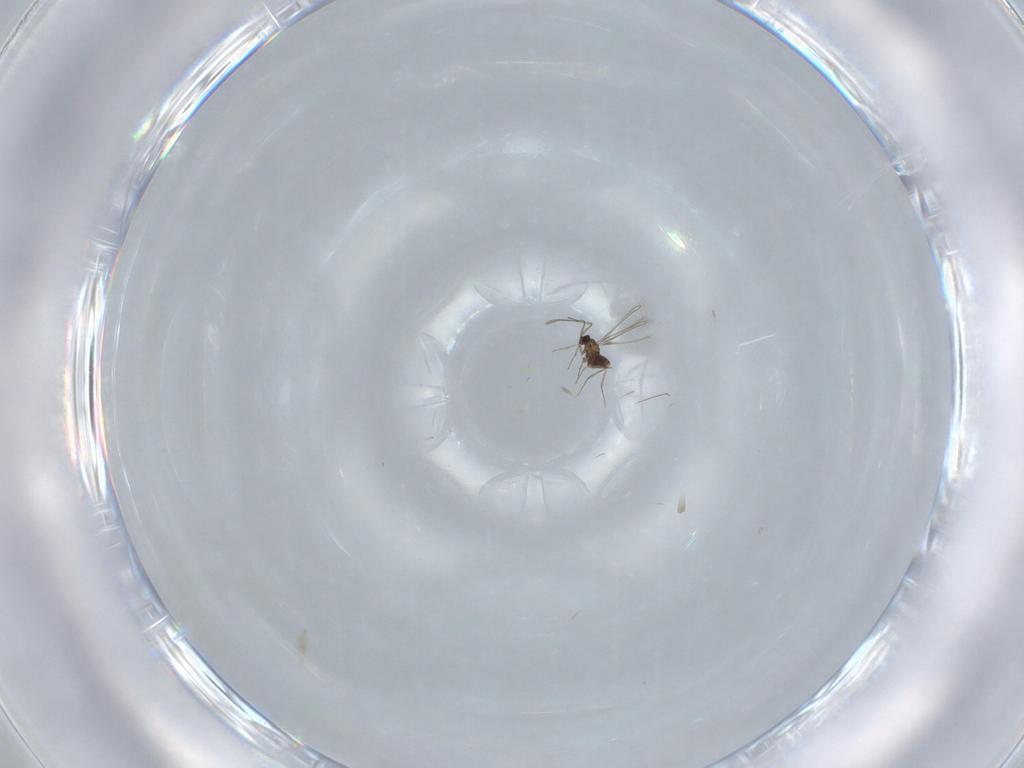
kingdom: Animalia
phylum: Arthropoda
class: Insecta
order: Hymenoptera
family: Mymaridae
